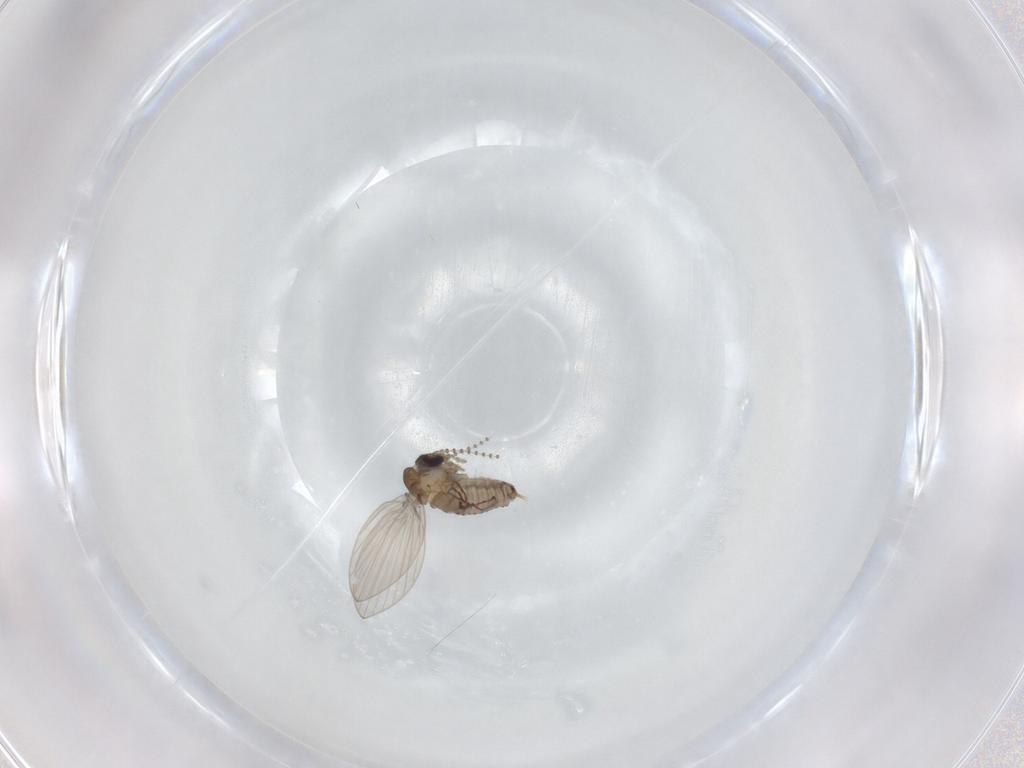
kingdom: Animalia
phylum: Arthropoda
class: Insecta
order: Diptera
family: Psychodidae
